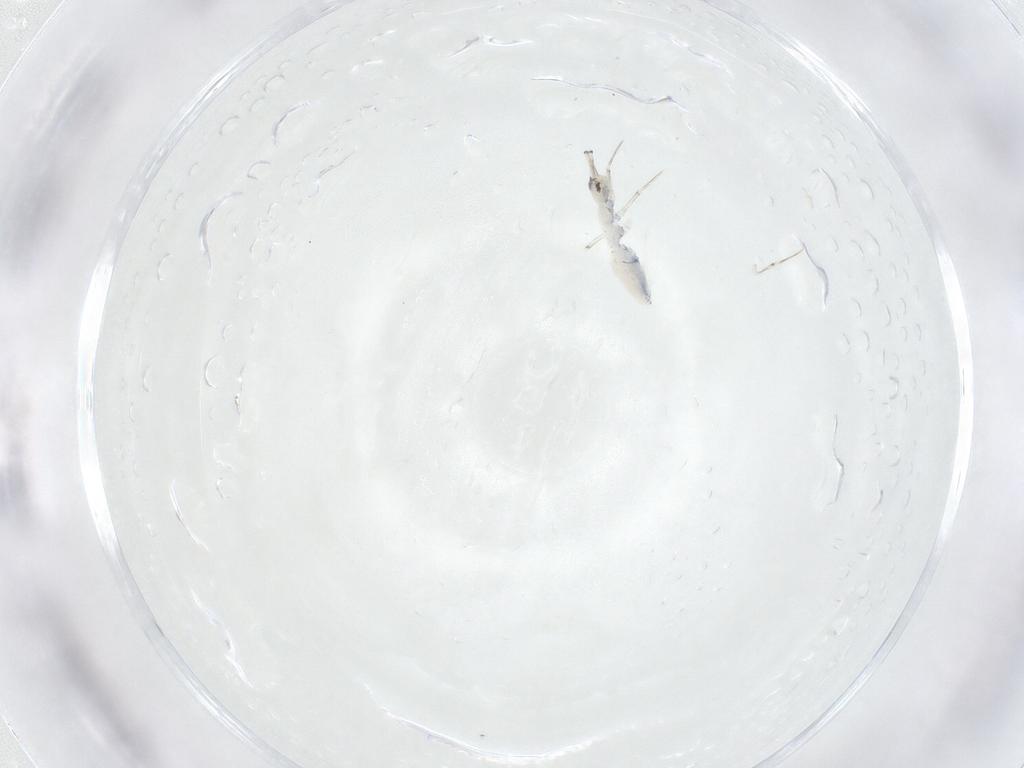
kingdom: Animalia
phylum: Arthropoda
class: Collembola
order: Entomobryomorpha
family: Paronellidae
